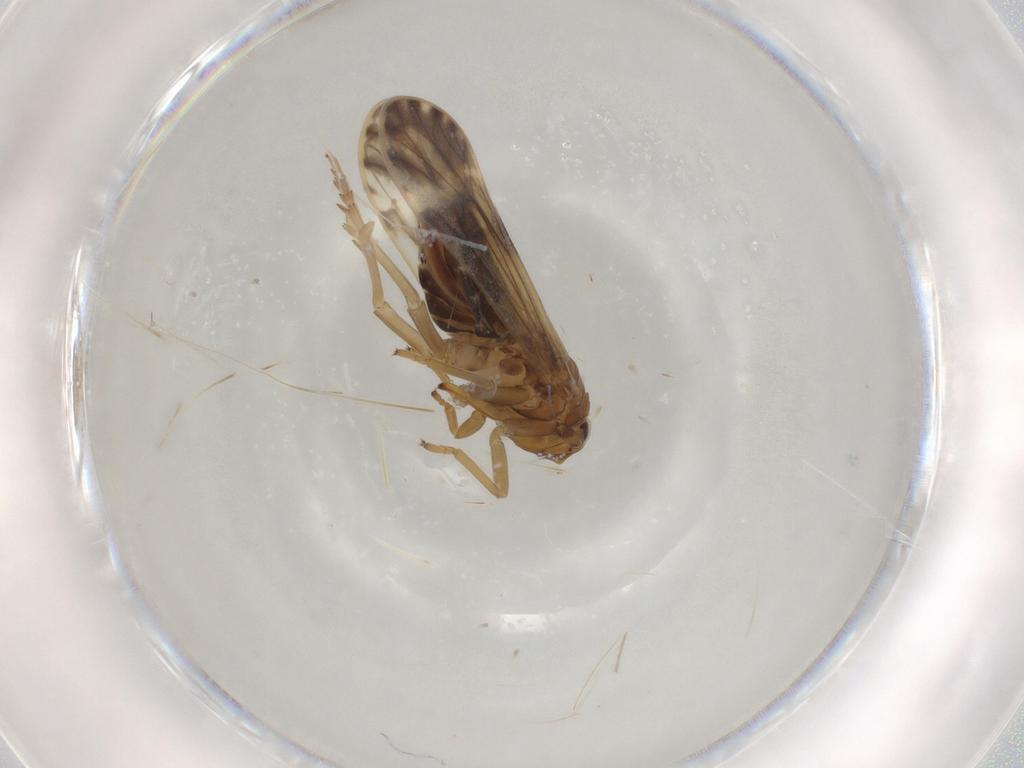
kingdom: Animalia
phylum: Arthropoda
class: Insecta
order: Hemiptera
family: Delphacidae
